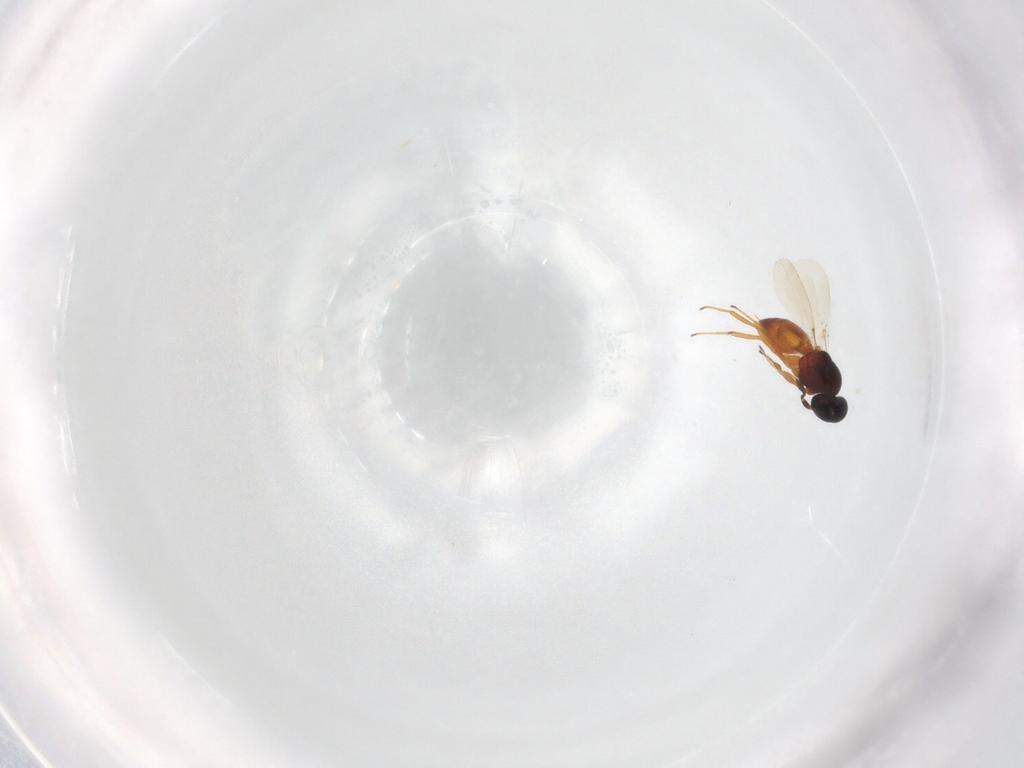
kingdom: Animalia
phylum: Arthropoda
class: Insecta
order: Hymenoptera
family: Platygastridae
